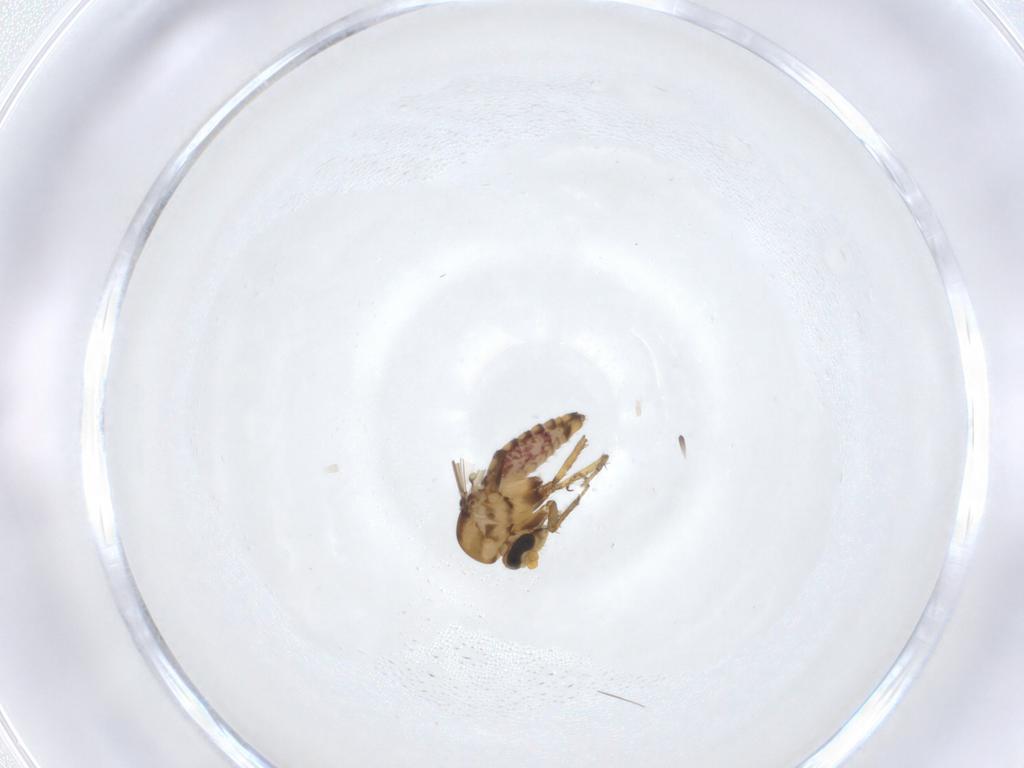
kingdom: Animalia
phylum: Arthropoda
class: Insecta
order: Diptera
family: Ceratopogonidae
